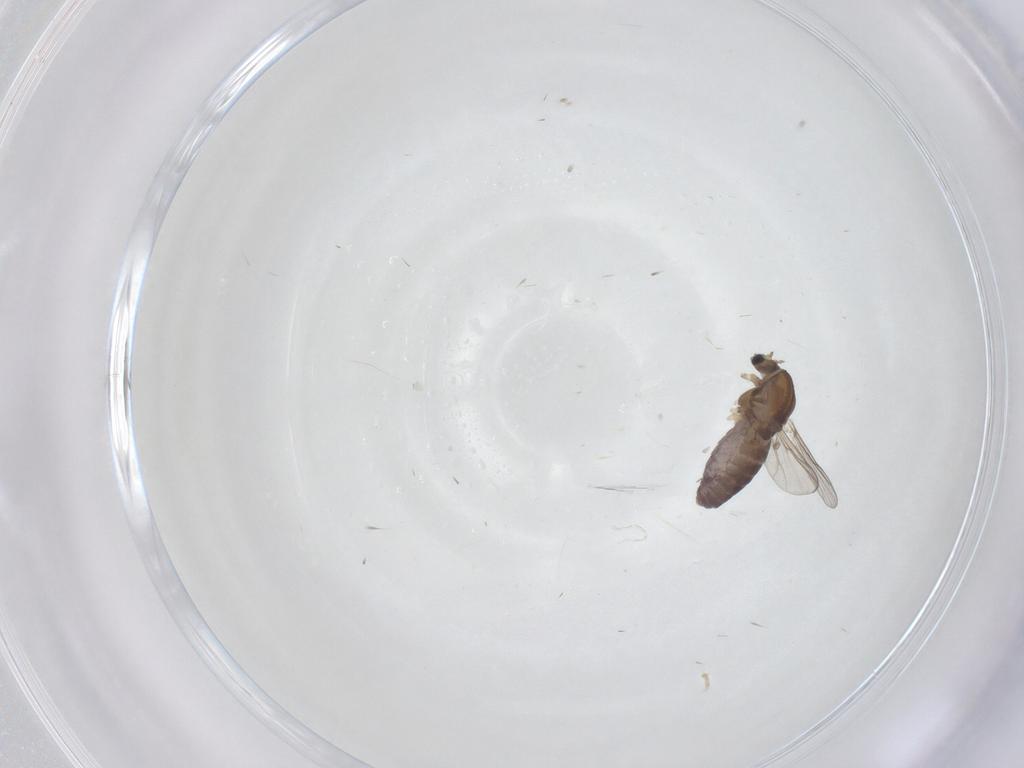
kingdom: Animalia
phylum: Arthropoda
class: Insecta
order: Diptera
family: Chironomidae
